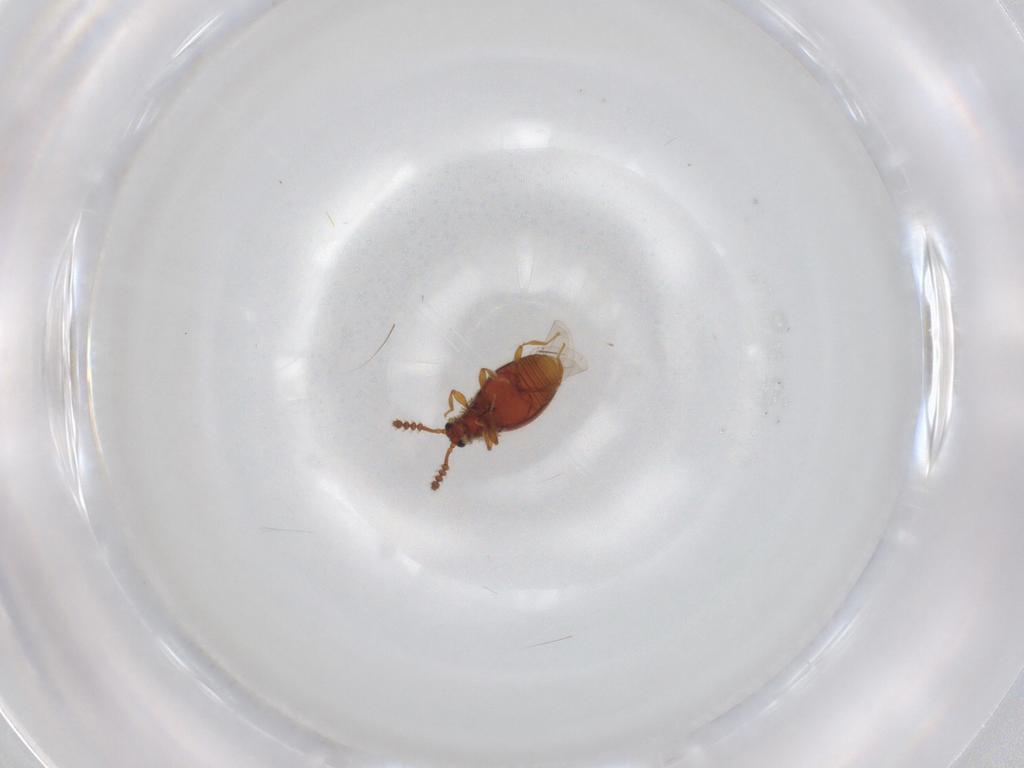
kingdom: Animalia
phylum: Arthropoda
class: Insecta
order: Coleoptera
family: Staphylinidae
